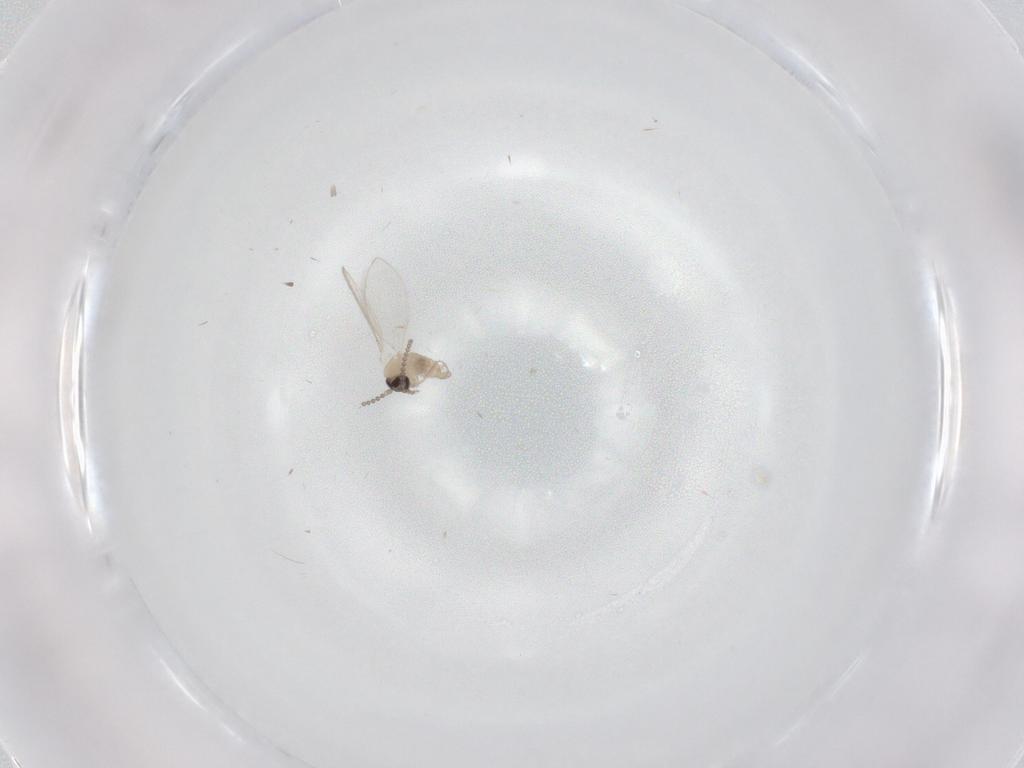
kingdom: Animalia
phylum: Arthropoda
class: Insecta
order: Diptera
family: Psychodidae
